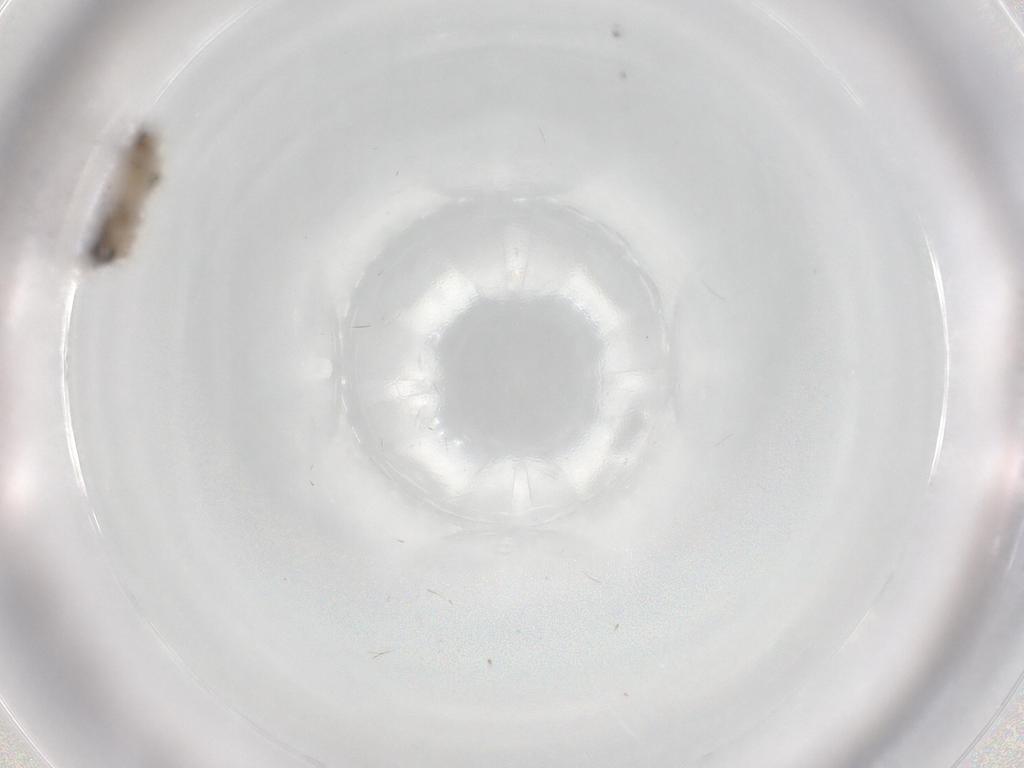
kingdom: Animalia
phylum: Arthropoda
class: Insecta
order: Diptera
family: Psychodidae
